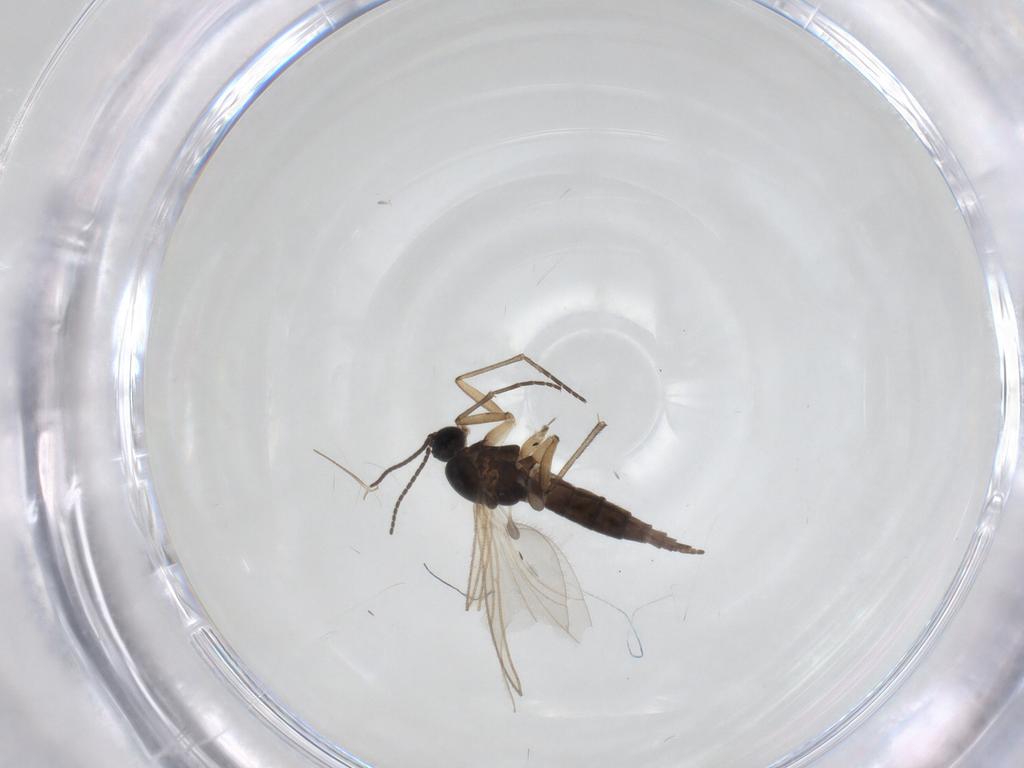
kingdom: Animalia
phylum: Arthropoda
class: Insecta
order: Diptera
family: Sciaridae
